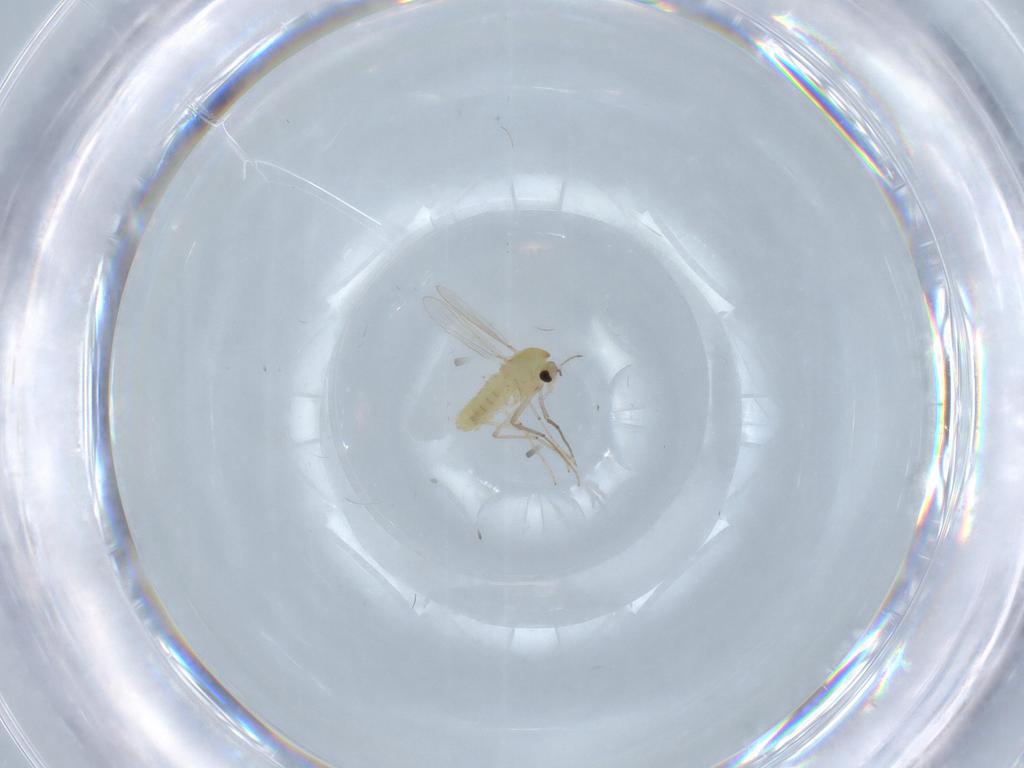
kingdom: Animalia
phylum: Arthropoda
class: Insecta
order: Diptera
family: Chironomidae
